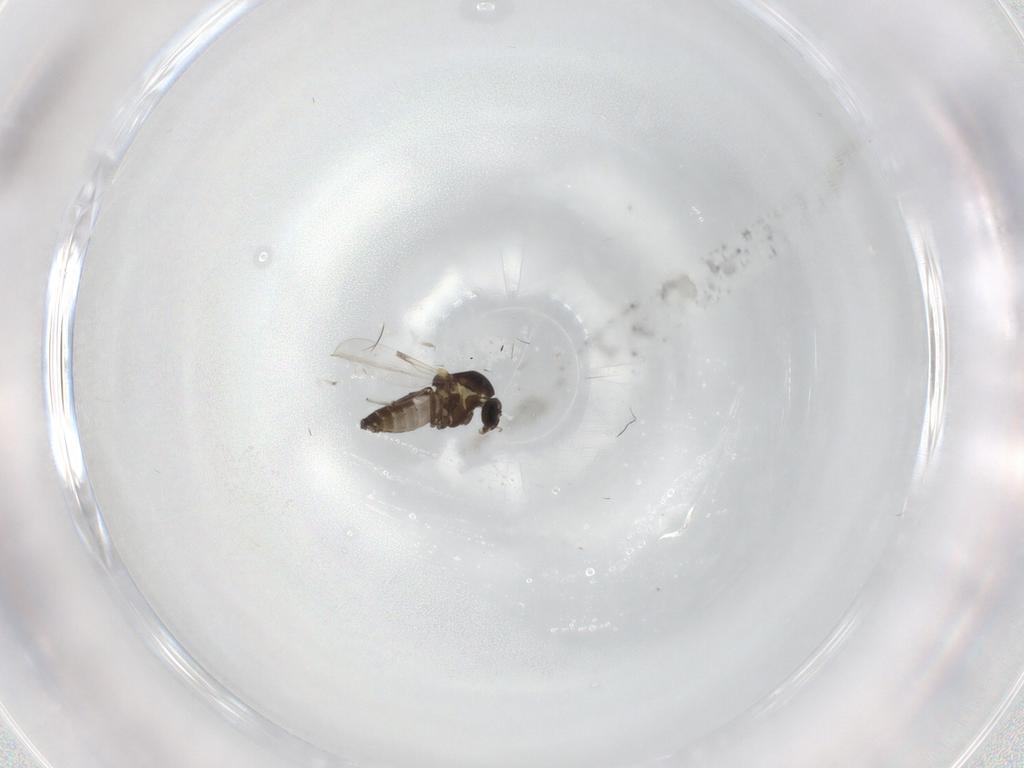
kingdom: Animalia
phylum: Arthropoda
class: Insecta
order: Diptera
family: Ceratopogonidae
